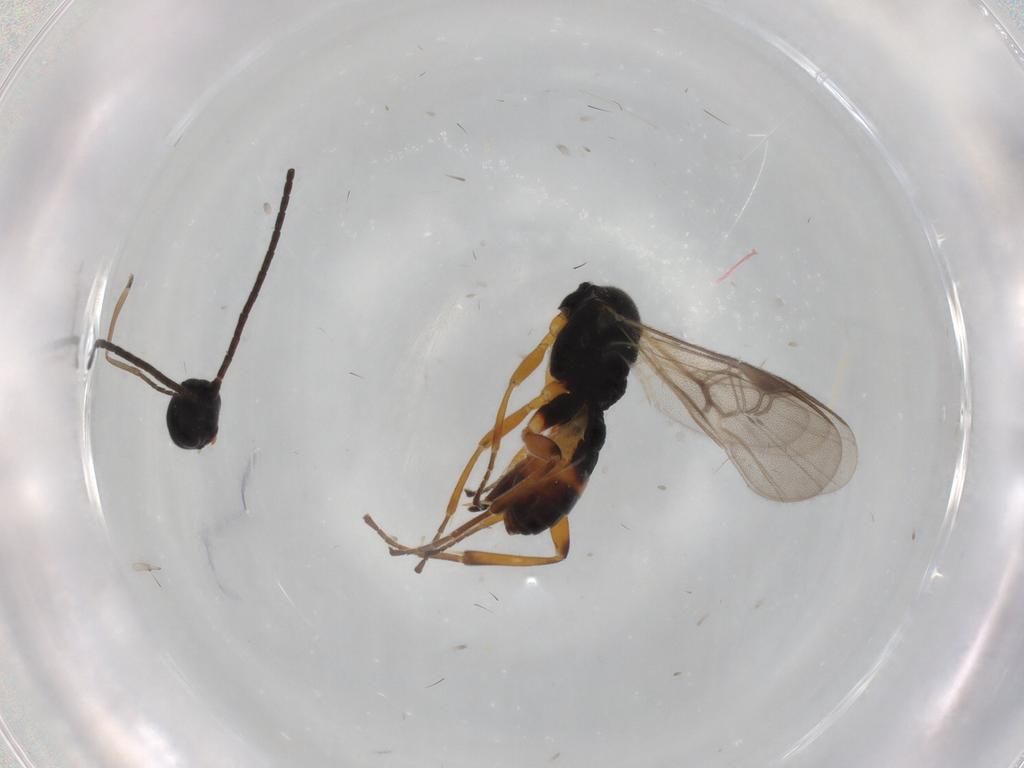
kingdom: Animalia
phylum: Arthropoda
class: Insecta
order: Hymenoptera
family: Braconidae
